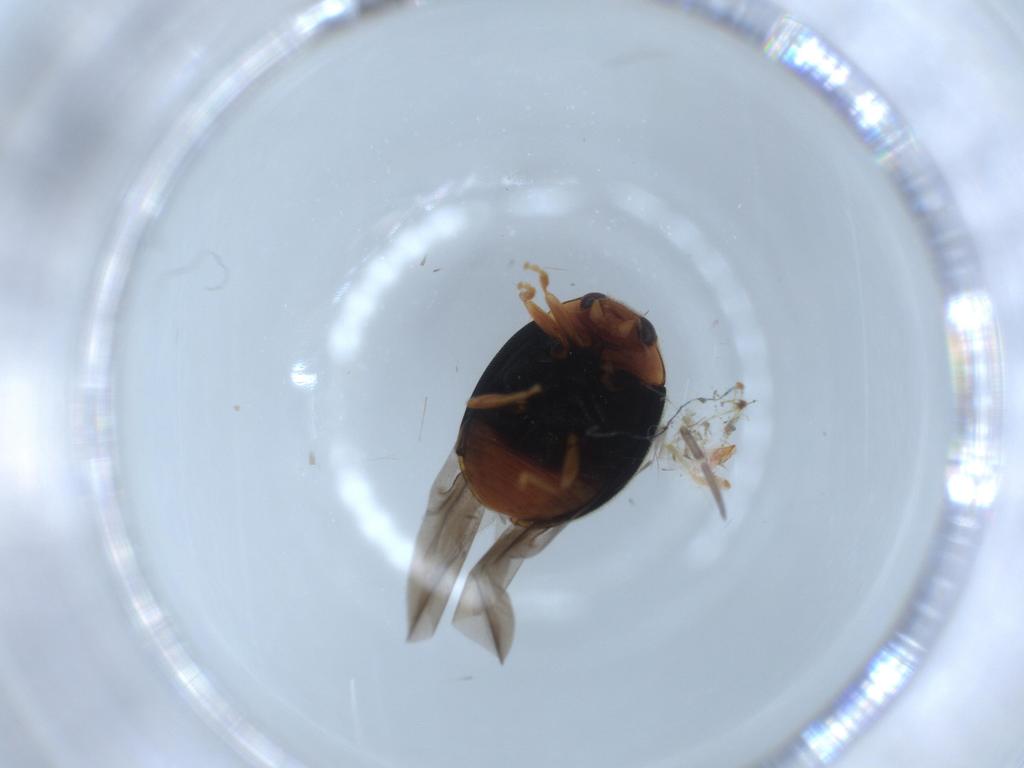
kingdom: Animalia
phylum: Arthropoda
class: Insecta
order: Coleoptera
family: Coccinellidae
